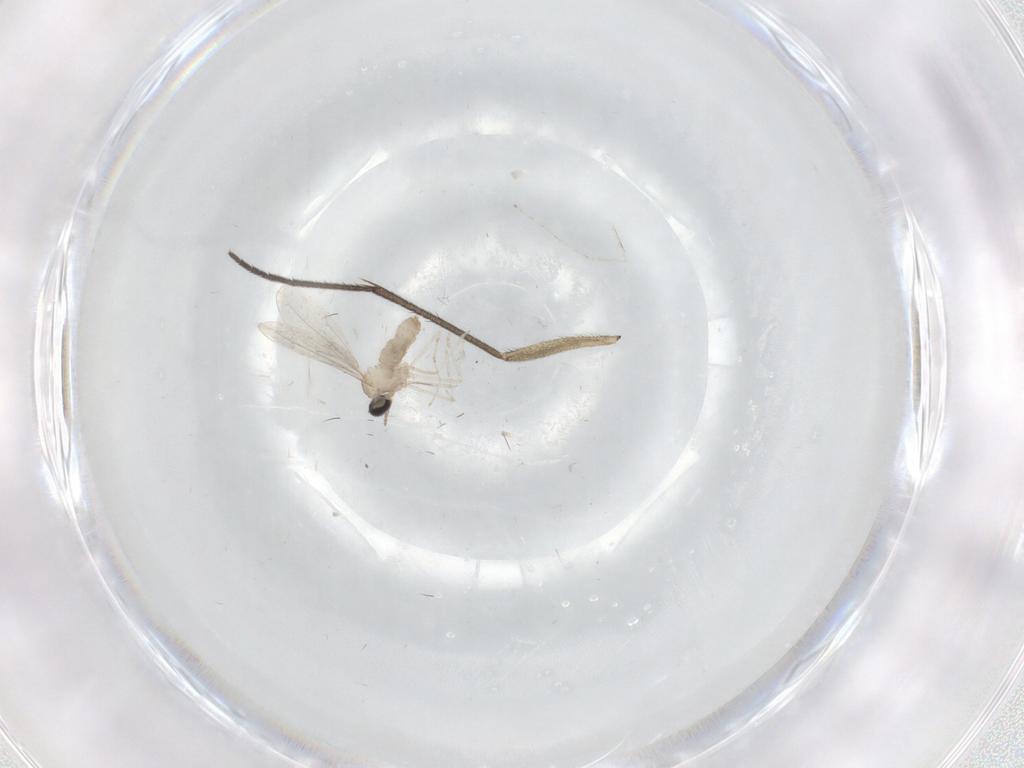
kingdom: Animalia
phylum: Arthropoda
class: Insecta
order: Diptera
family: Cecidomyiidae
